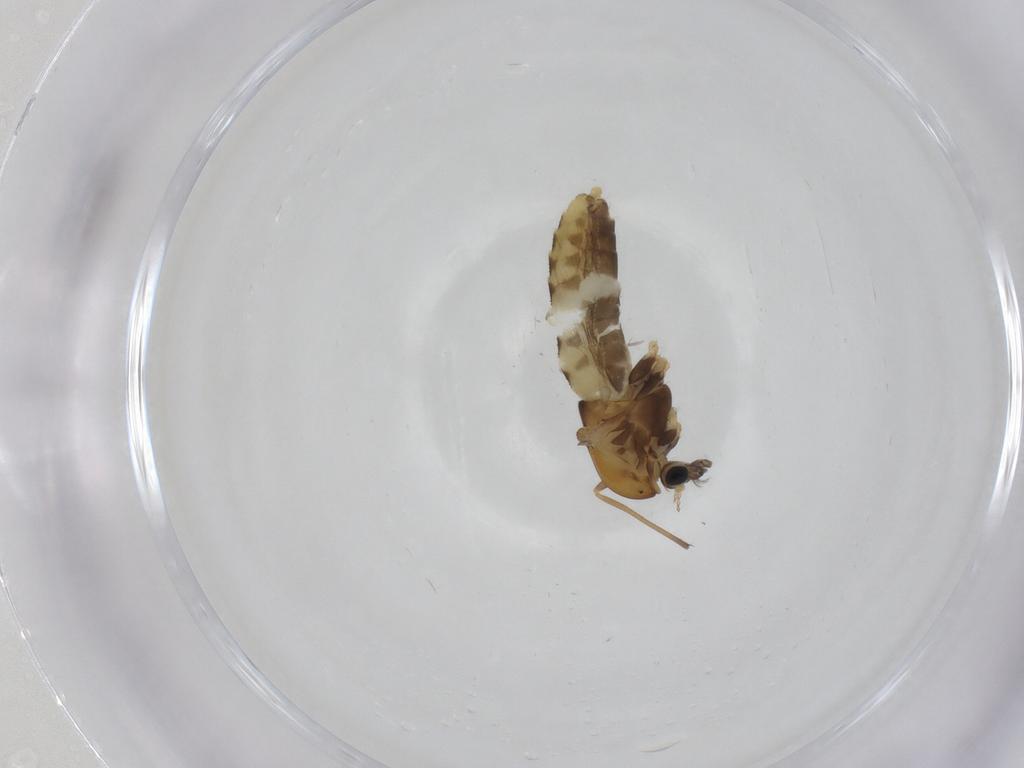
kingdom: Animalia
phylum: Arthropoda
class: Insecta
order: Diptera
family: Chironomidae
